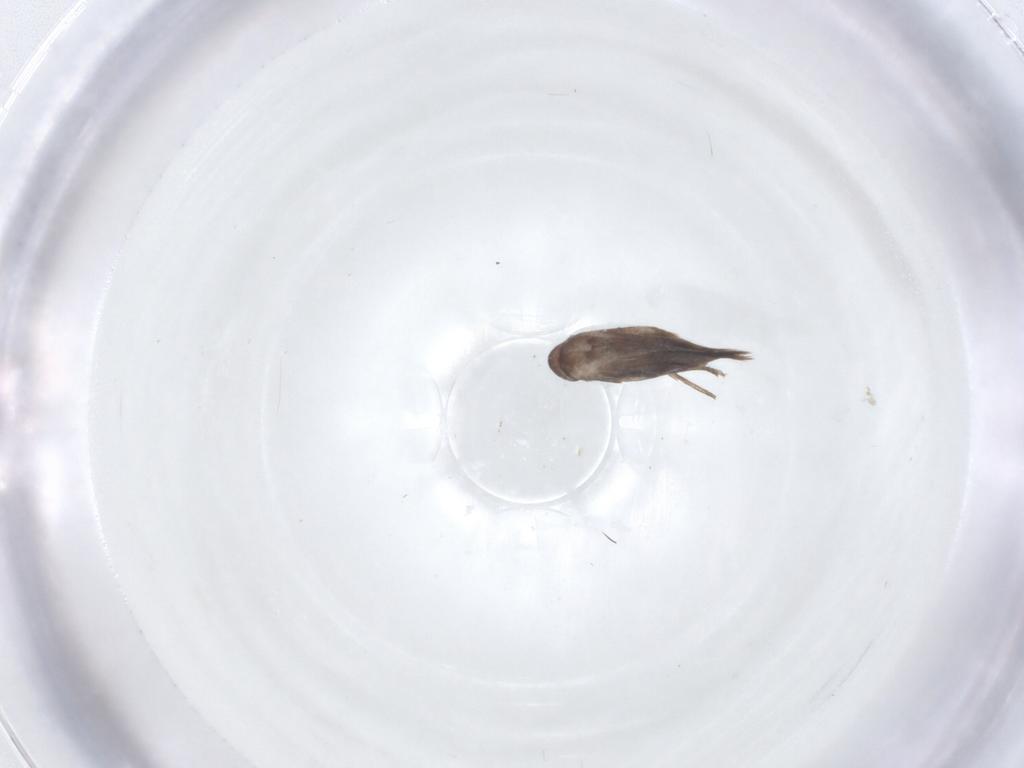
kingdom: Animalia
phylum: Arthropoda
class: Insecta
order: Lepidoptera
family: Lyonetiidae
